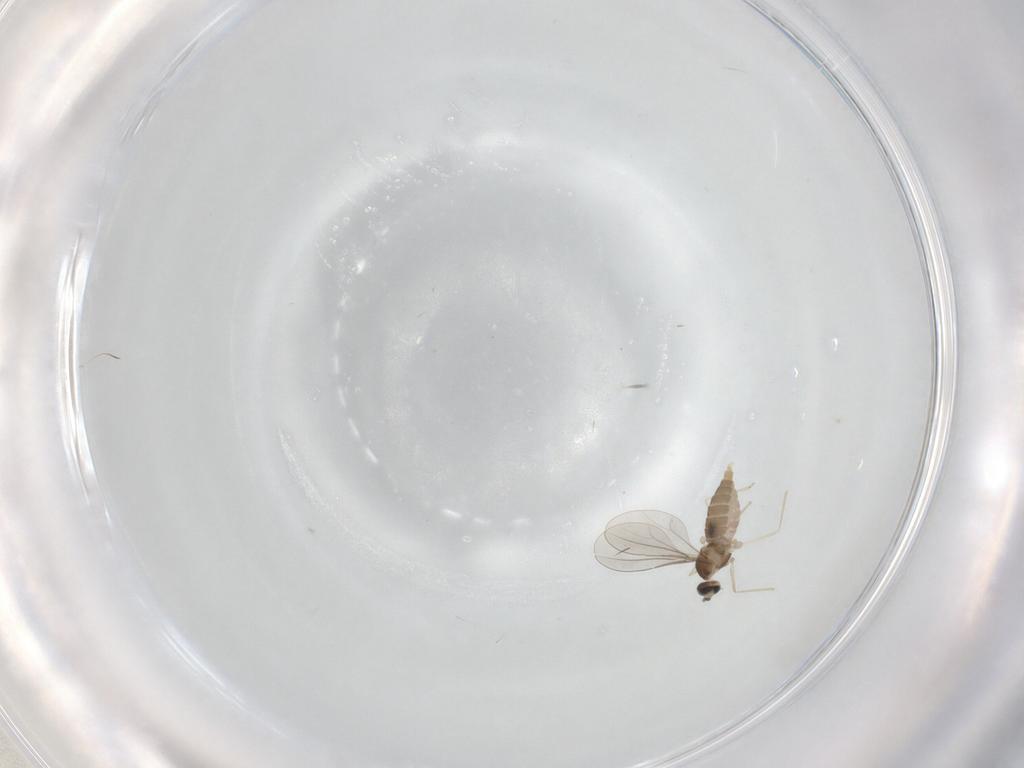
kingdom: Animalia
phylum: Arthropoda
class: Insecta
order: Diptera
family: Cecidomyiidae
